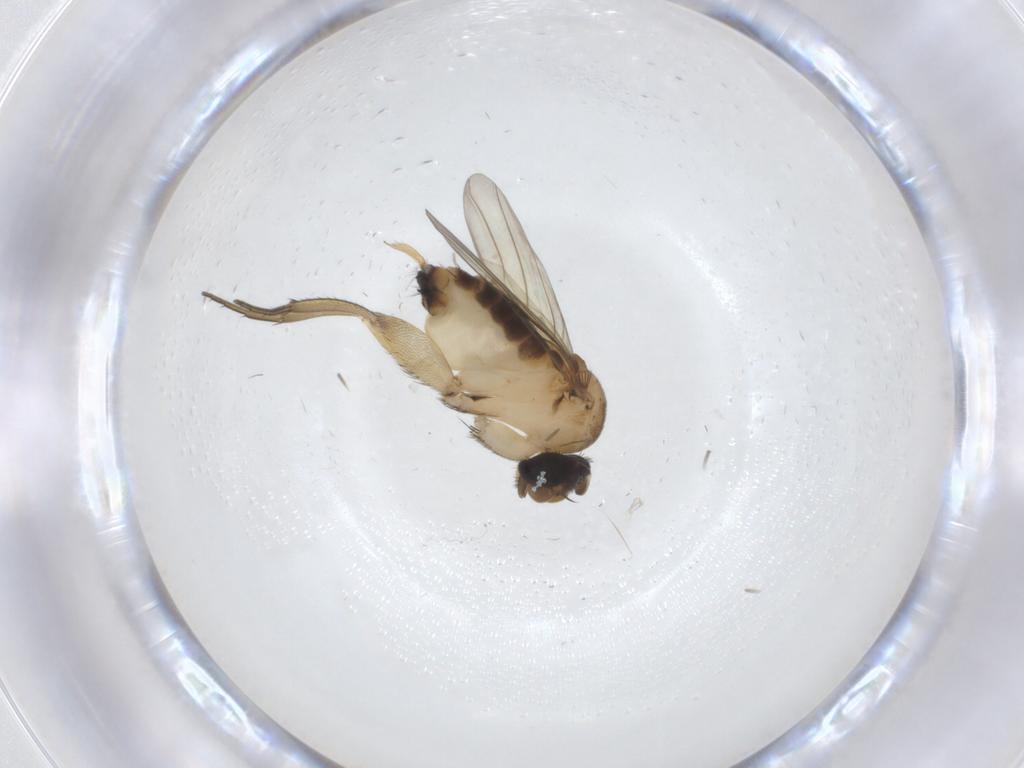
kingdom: Animalia
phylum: Arthropoda
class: Insecta
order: Diptera
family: Phoridae
